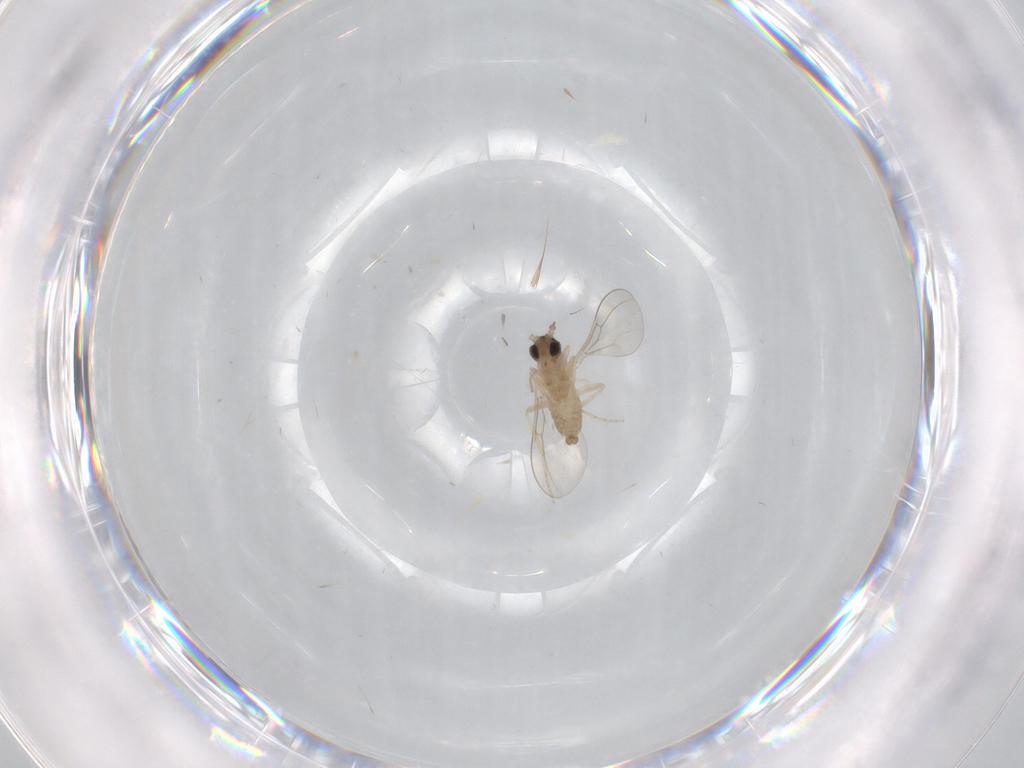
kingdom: Animalia
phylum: Arthropoda
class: Insecta
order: Diptera
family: Cecidomyiidae
